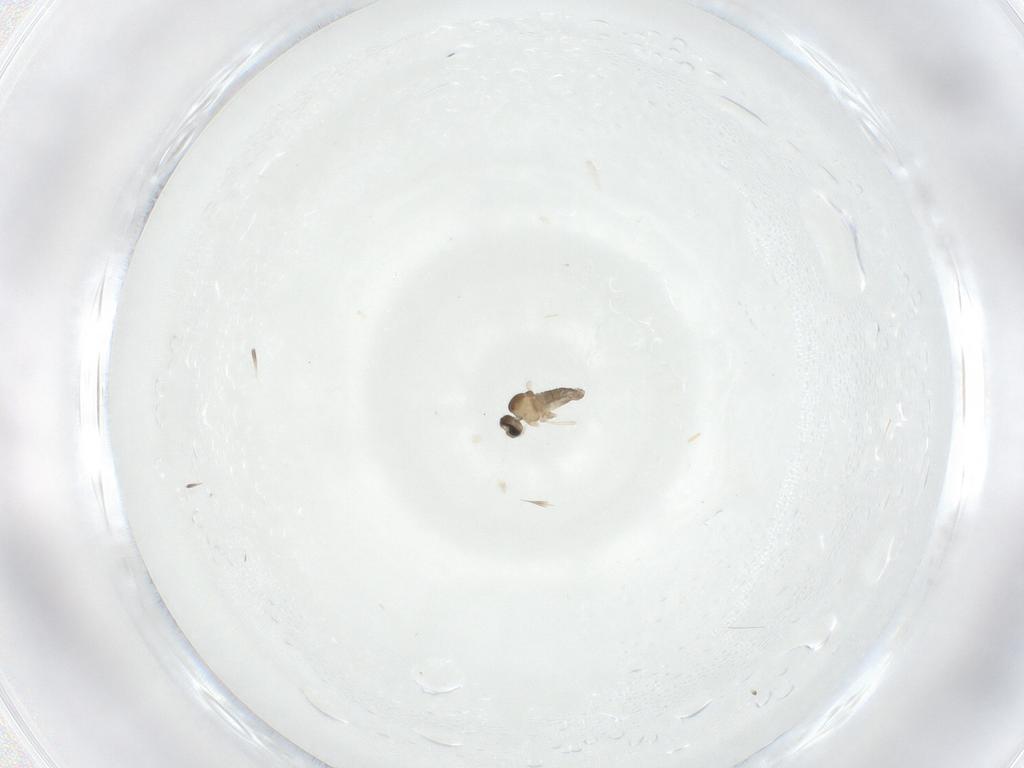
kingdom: Animalia
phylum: Arthropoda
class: Insecta
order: Diptera
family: Cecidomyiidae
